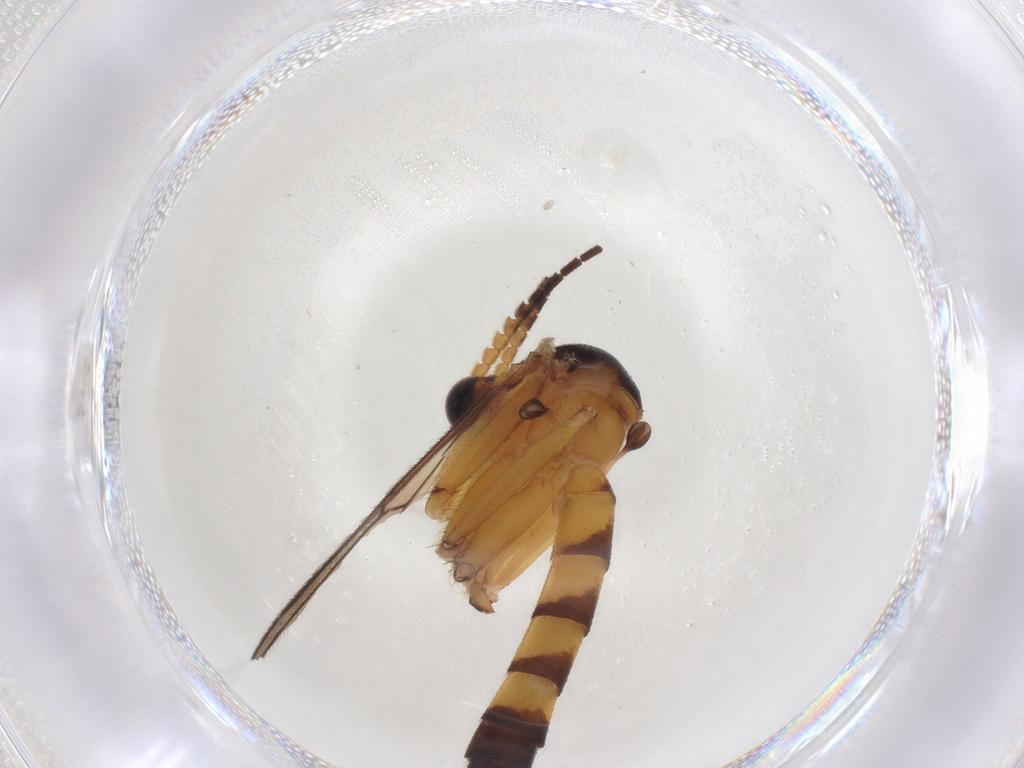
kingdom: Animalia
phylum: Arthropoda
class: Insecta
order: Diptera
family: Mycetophilidae
